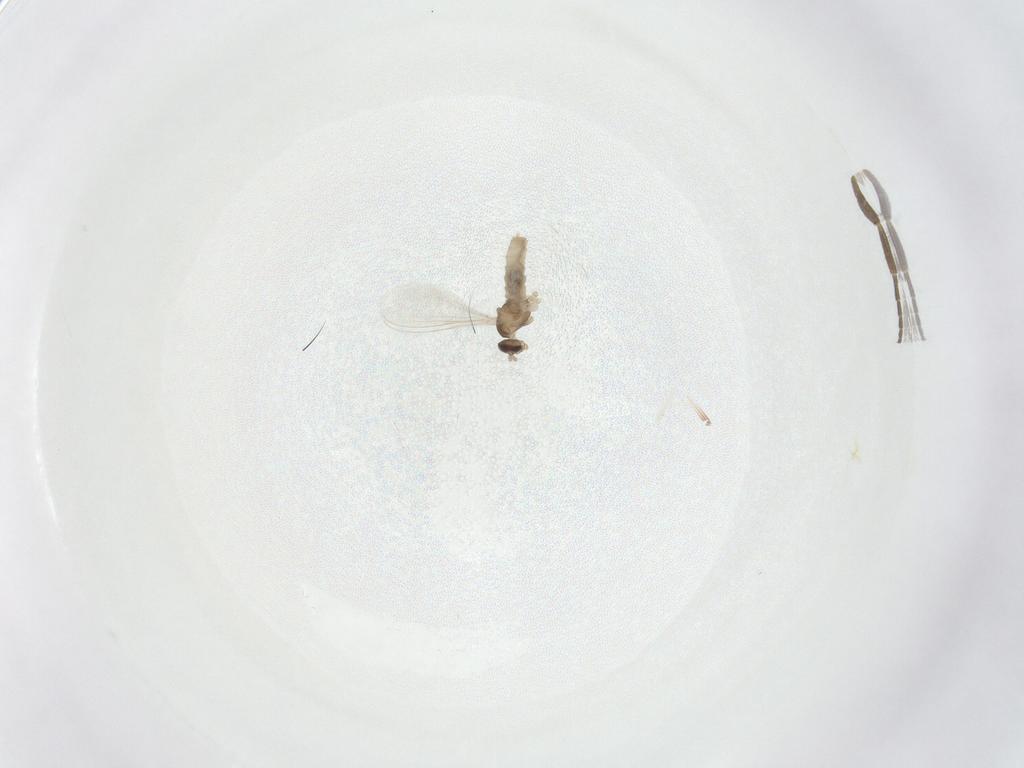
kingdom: Animalia
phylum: Arthropoda
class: Insecta
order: Diptera
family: Cecidomyiidae
